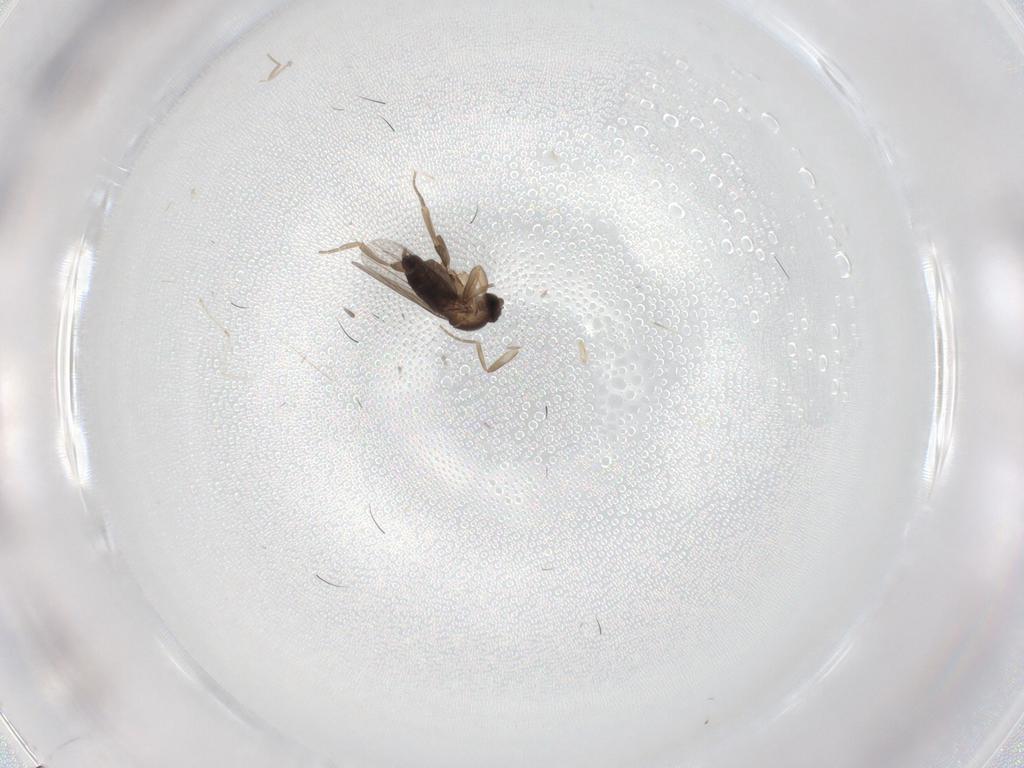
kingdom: Animalia
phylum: Arthropoda
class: Insecta
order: Diptera
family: Phoridae
